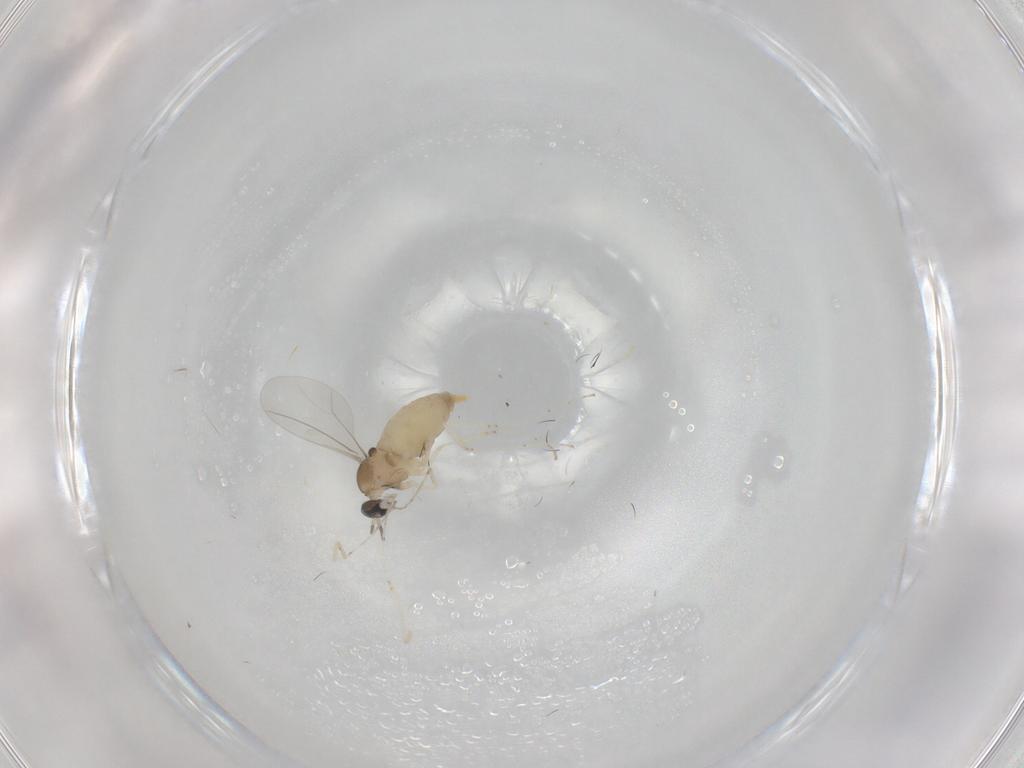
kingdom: Animalia
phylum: Arthropoda
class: Insecta
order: Diptera
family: Cecidomyiidae
